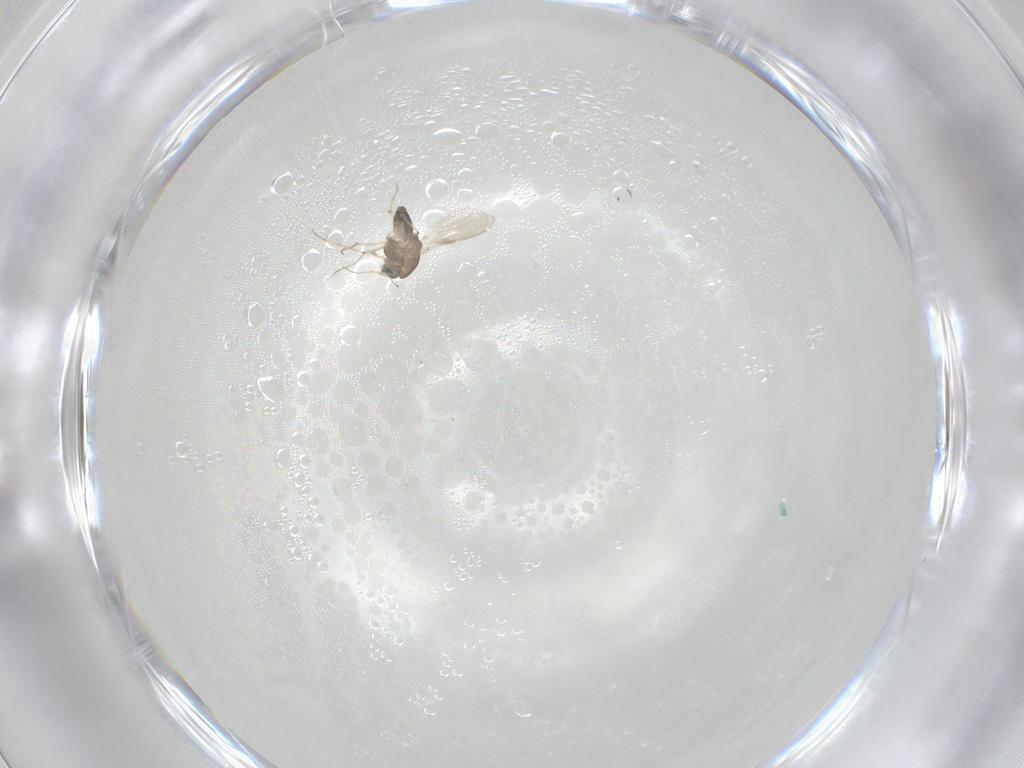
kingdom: Animalia
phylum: Arthropoda
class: Insecta
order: Diptera
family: Chironomidae
